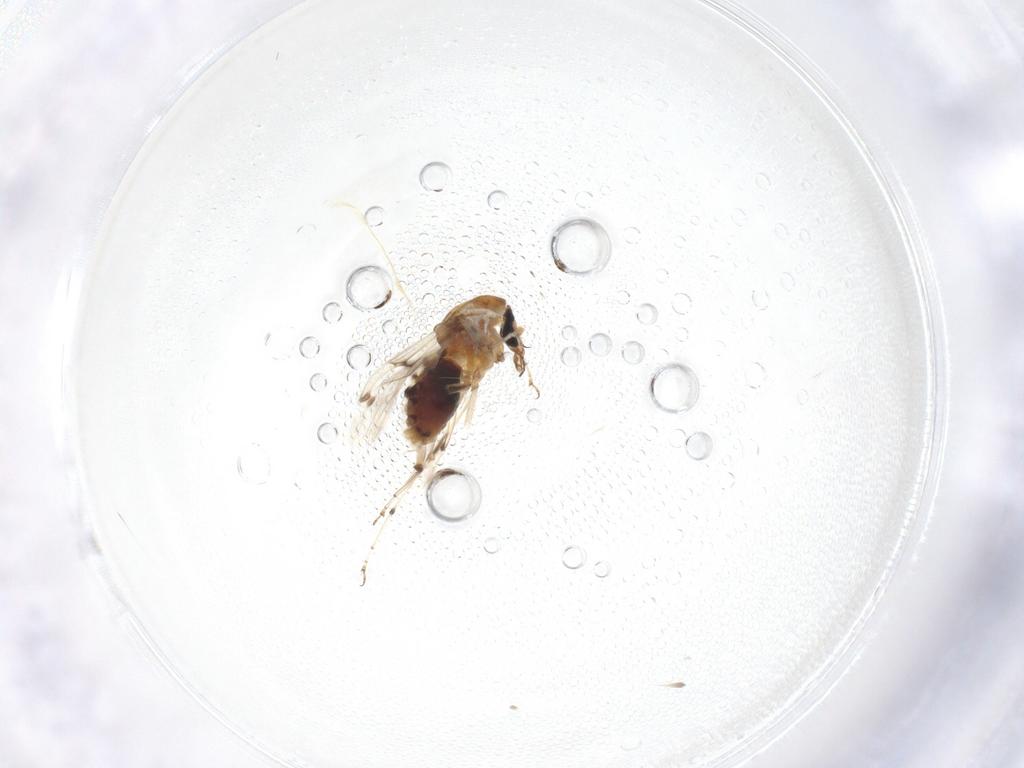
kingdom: Animalia
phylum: Arthropoda
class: Insecta
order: Diptera
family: Ceratopogonidae
